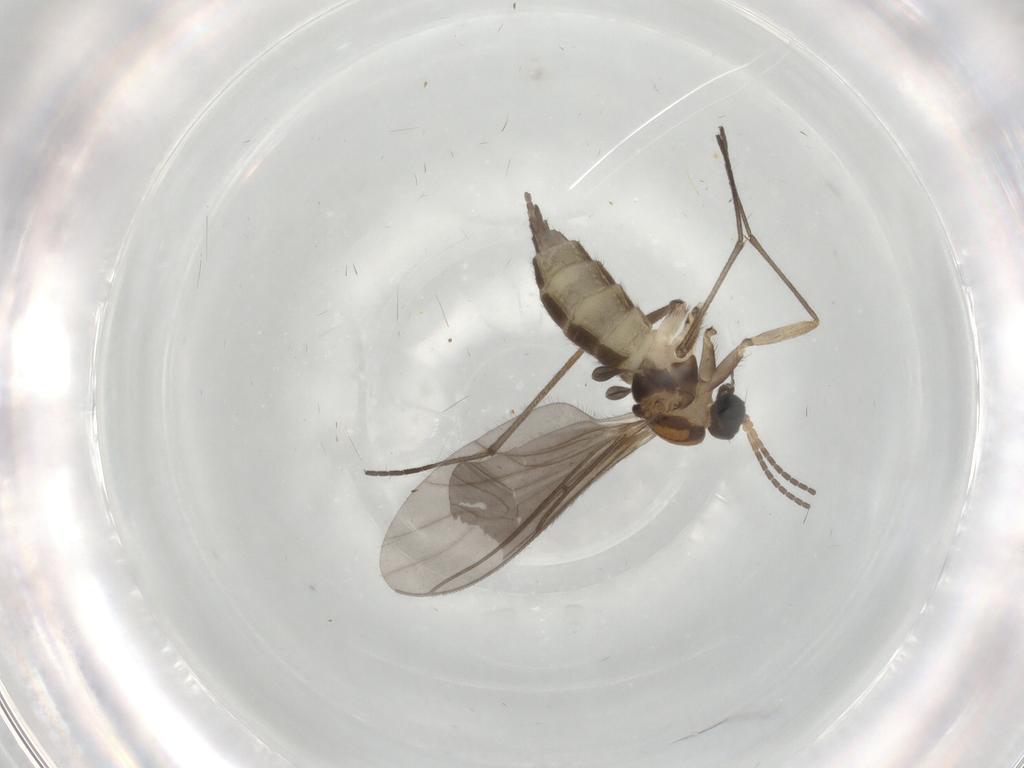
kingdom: Animalia
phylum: Arthropoda
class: Insecta
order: Diptera
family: Sciaridae
